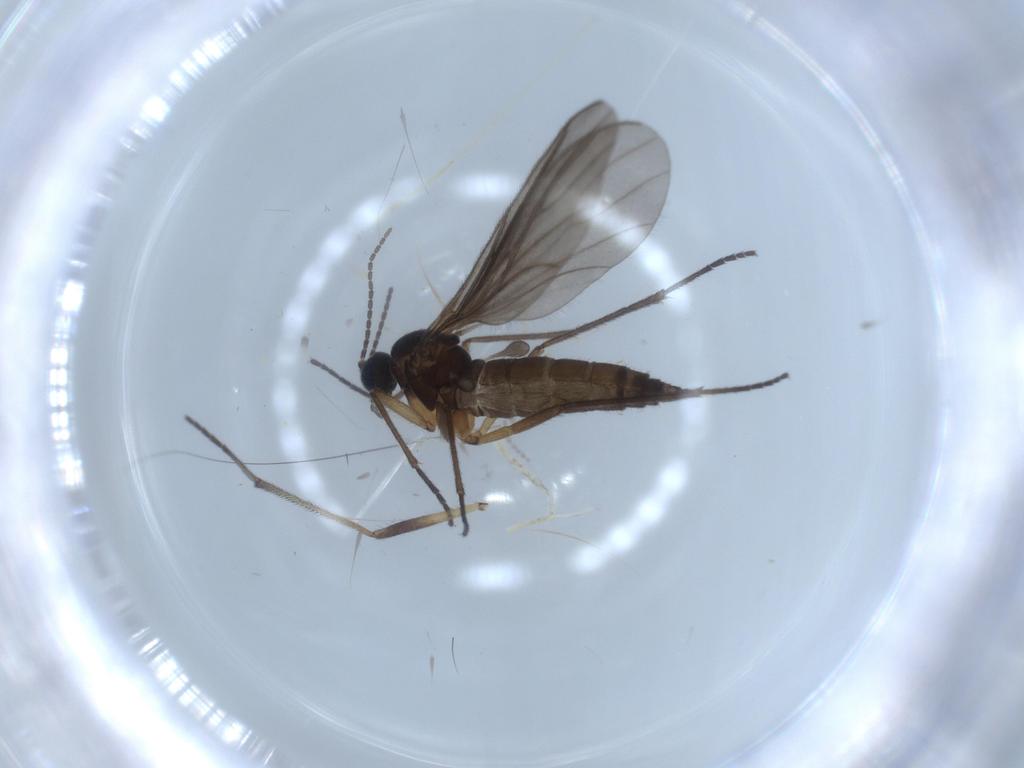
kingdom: Animalia
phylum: Arthropoda
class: Insecta
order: Diptera
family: Sciaridae
